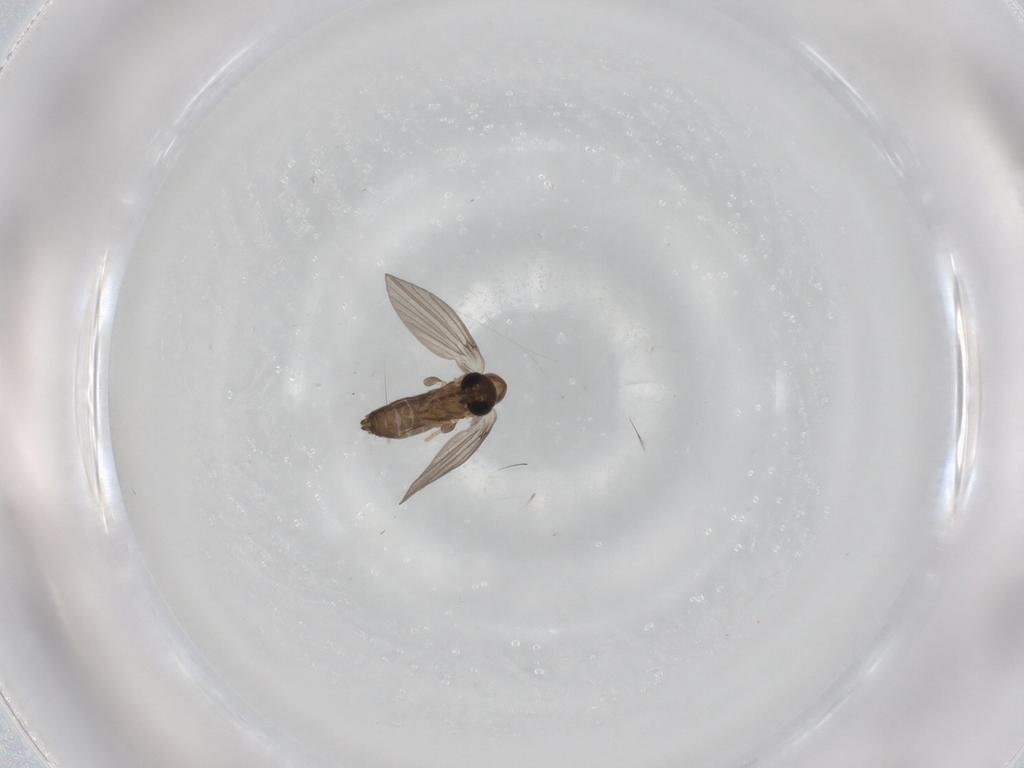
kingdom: Animalia
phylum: Arthropoda
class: Insecta
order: Diptera
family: Psychodidae
